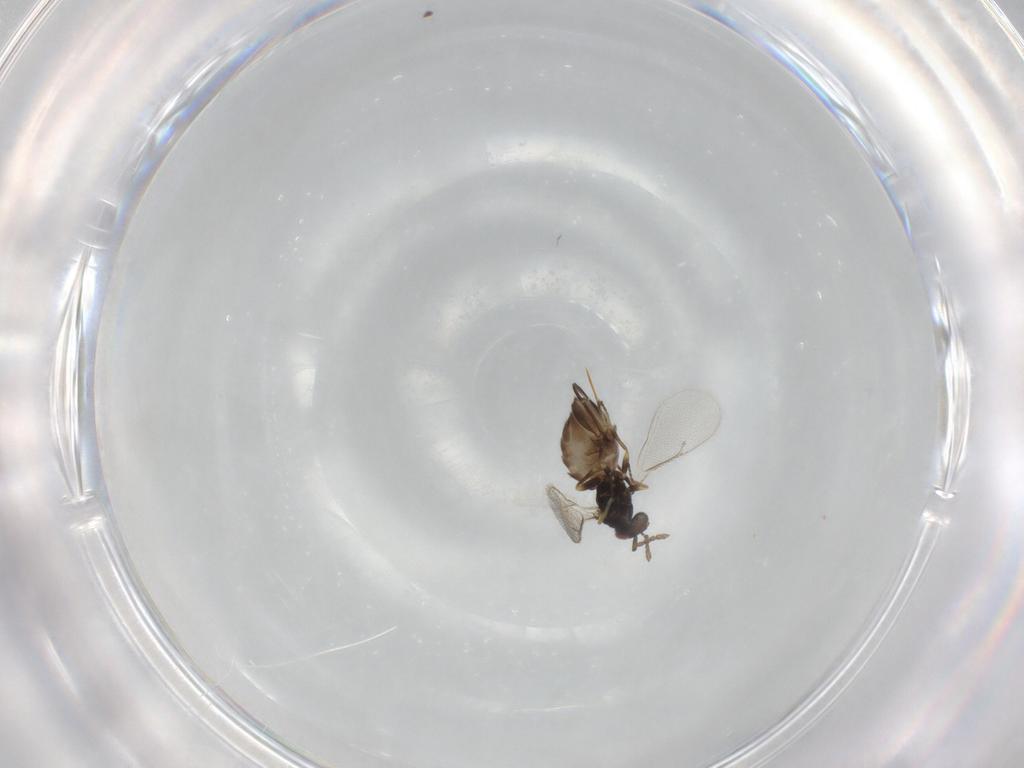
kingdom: Animalia
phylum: Arthropoda
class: Insecta
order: Hymenoptera
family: Eulophidae
